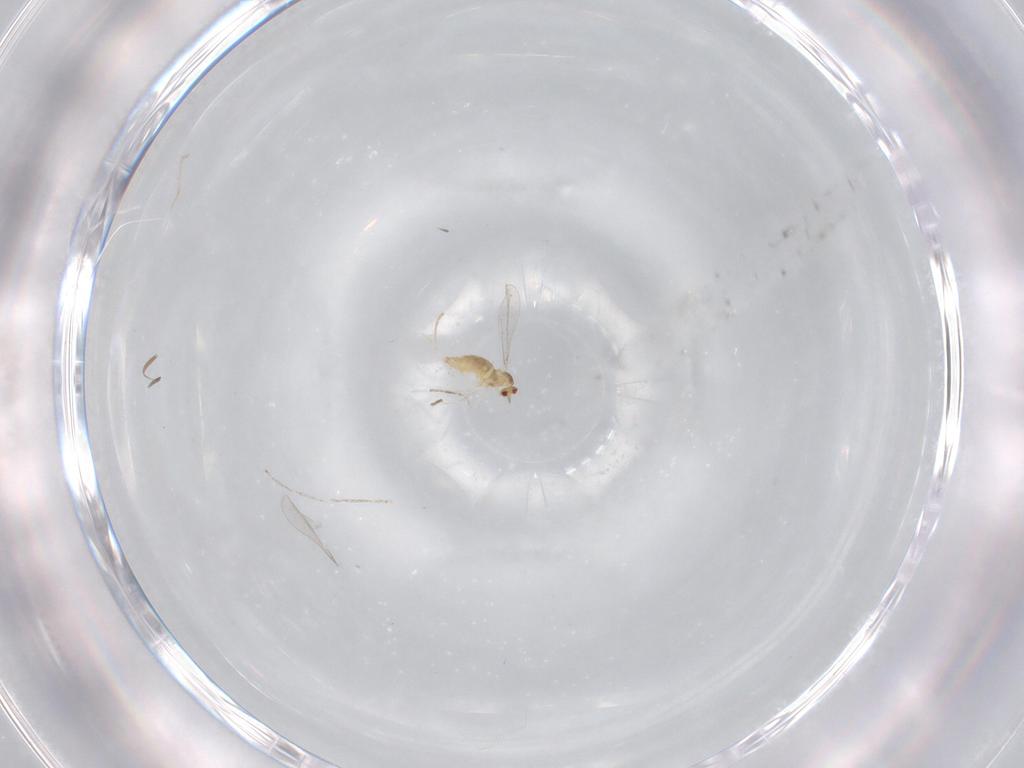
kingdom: Animalia
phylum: Arthropoda
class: Insecta
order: Diptera
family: Cecidomyiidae
